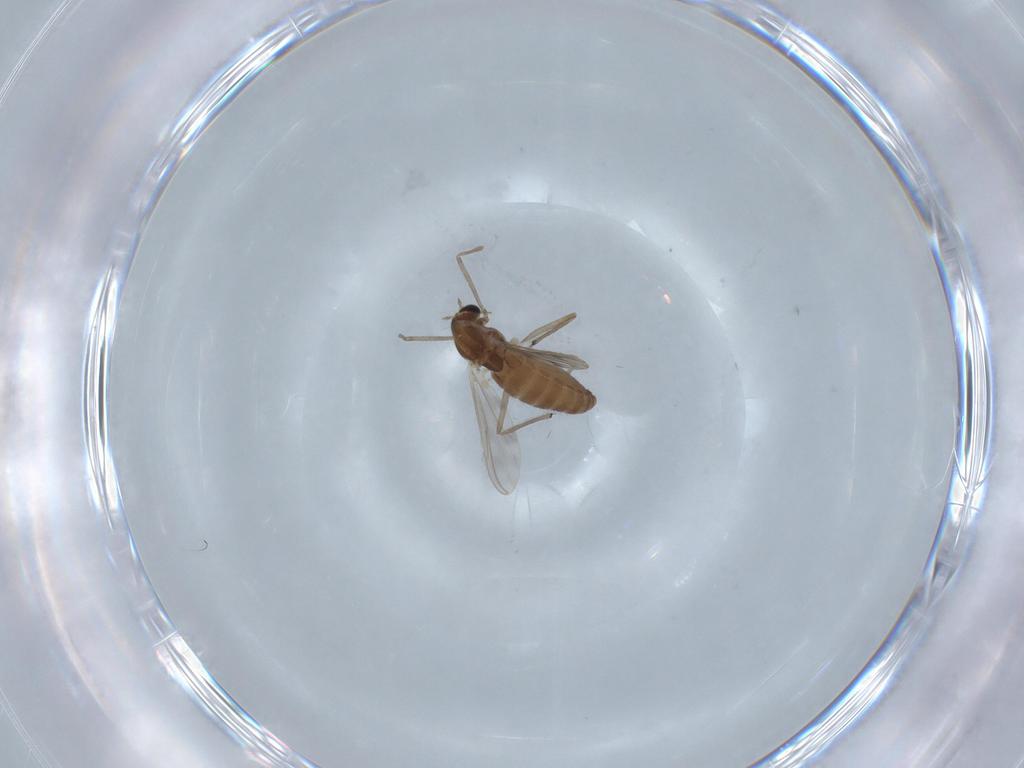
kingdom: Animalia
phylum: Arthropoda
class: Insecta
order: Diptera
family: Chironomidae
